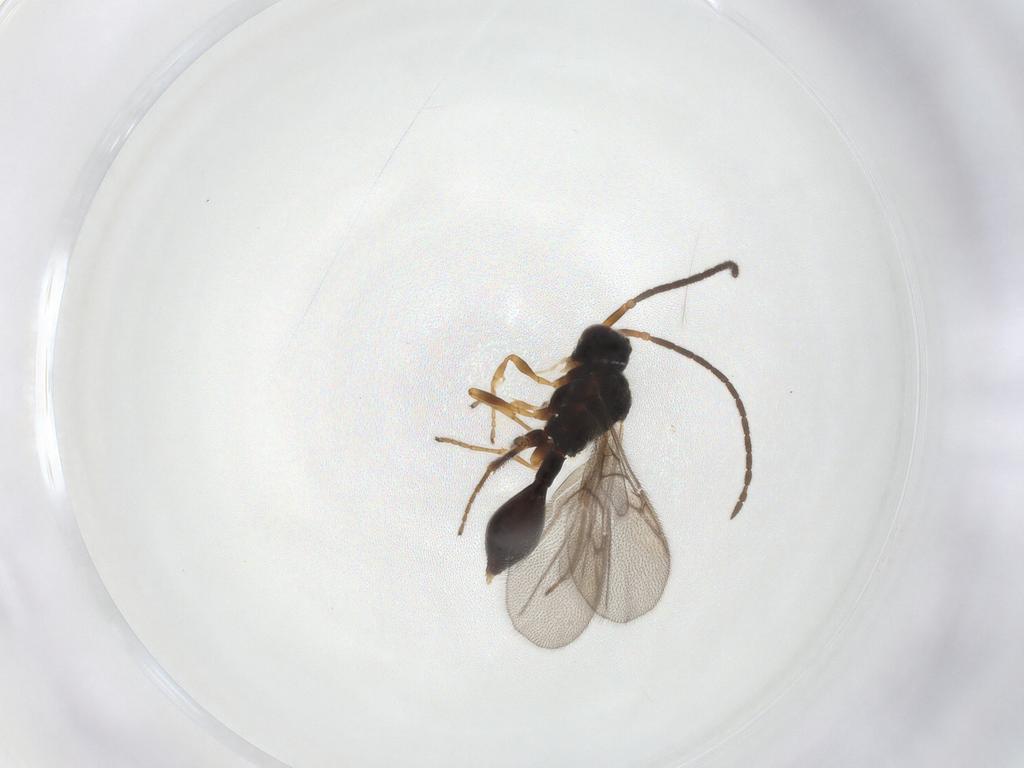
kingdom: Animalia
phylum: Arthropoda
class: Insecta
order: Hymenoptera
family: Diapriidae
